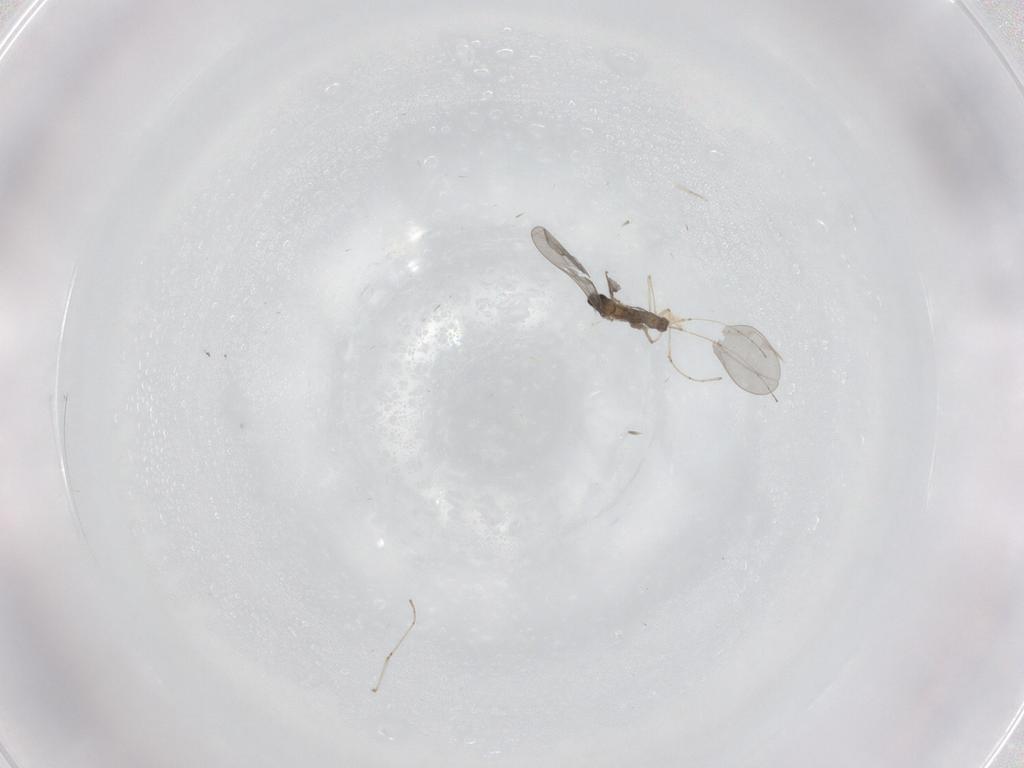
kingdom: Animalia
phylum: Arthropoda
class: Insecta
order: Diptera
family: Cecidomyiidae
